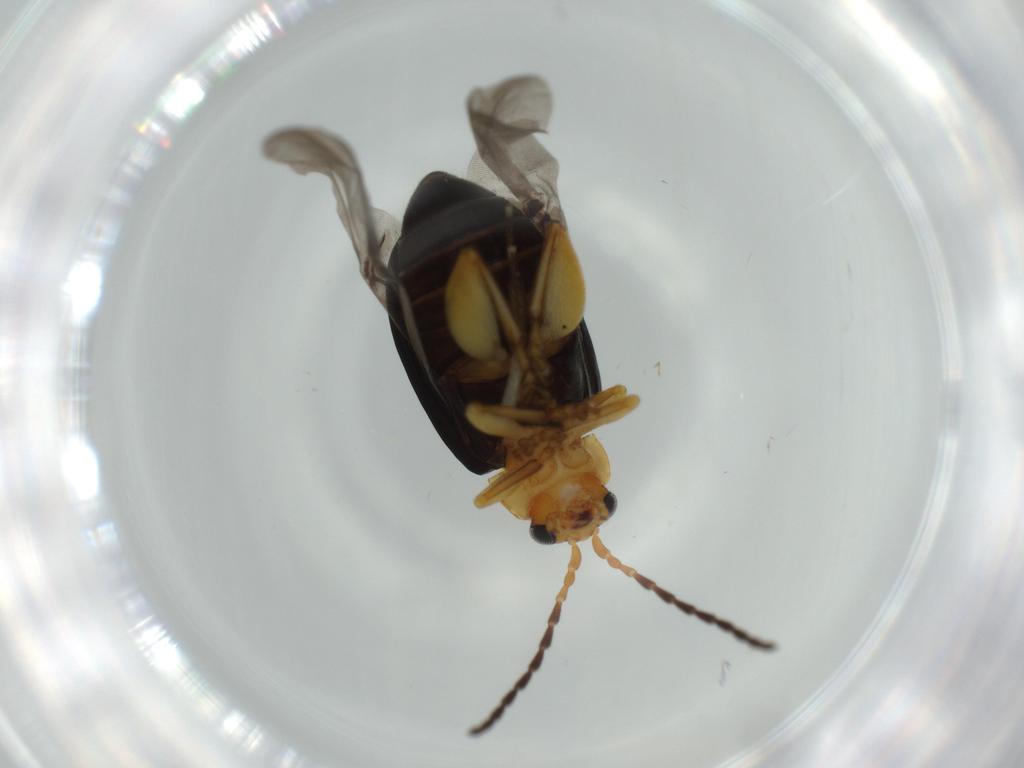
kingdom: Animalia
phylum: Arthropoda
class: Insecta
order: Coleoptera
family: Chrysomelidae
